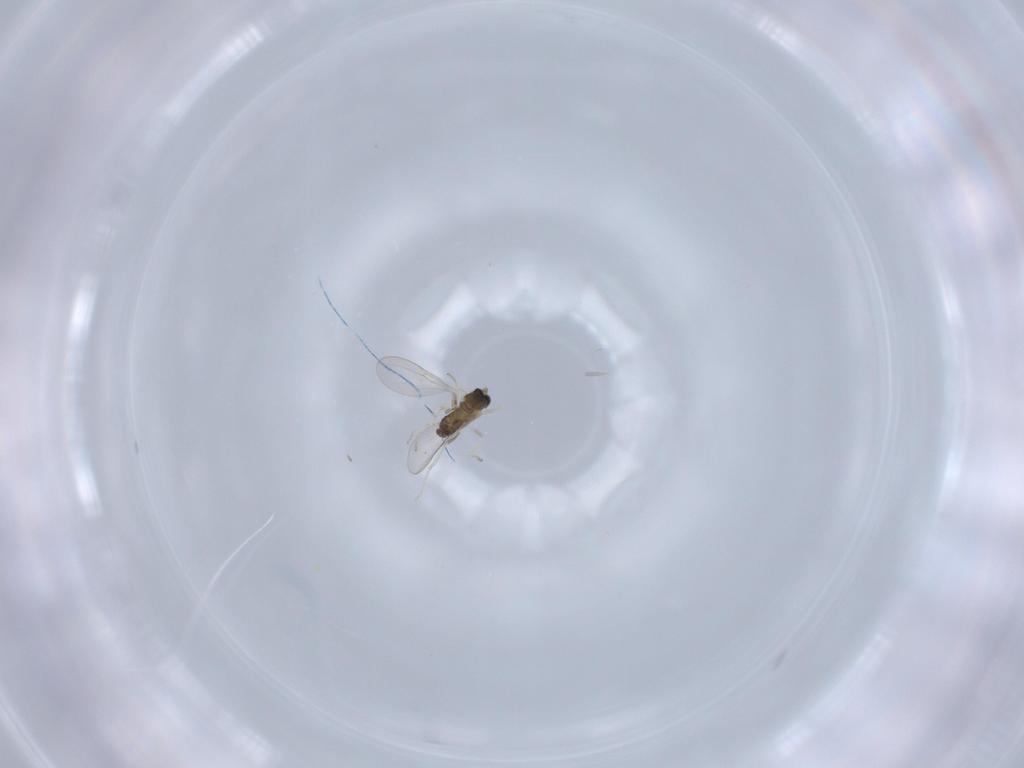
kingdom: Animalia
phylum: Arthropoda
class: Insecta
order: Diptera
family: Cecidomyiidae
